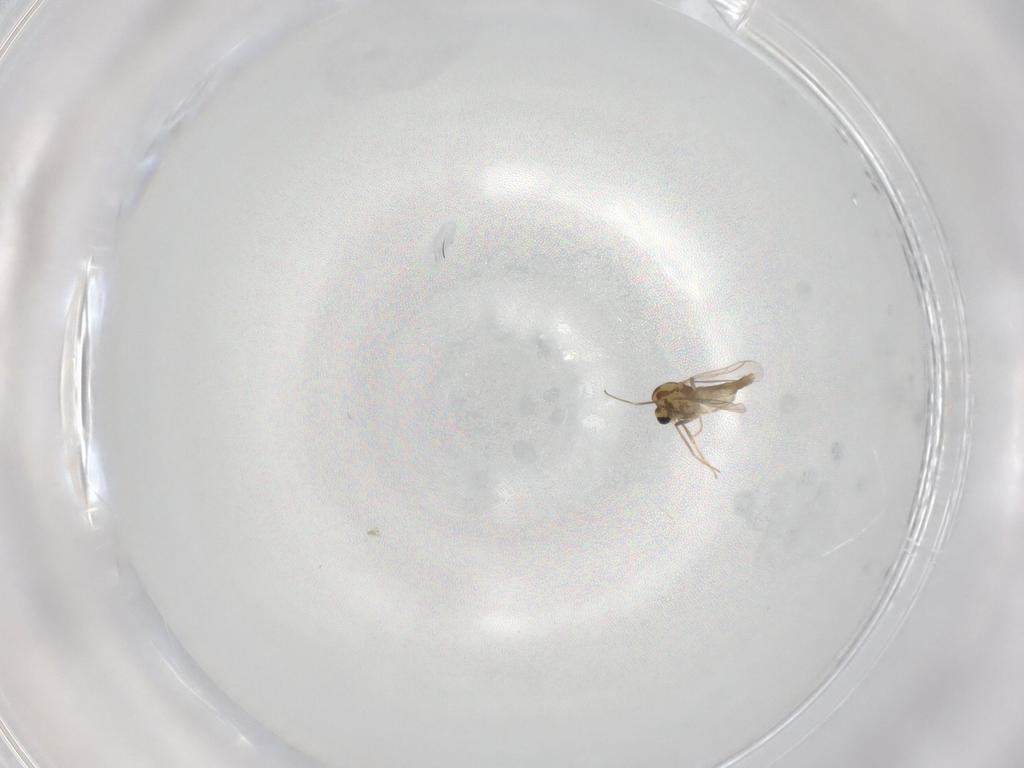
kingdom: Animalia
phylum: Arthropoda
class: Insecta
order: Diptera
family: Chironomidae
